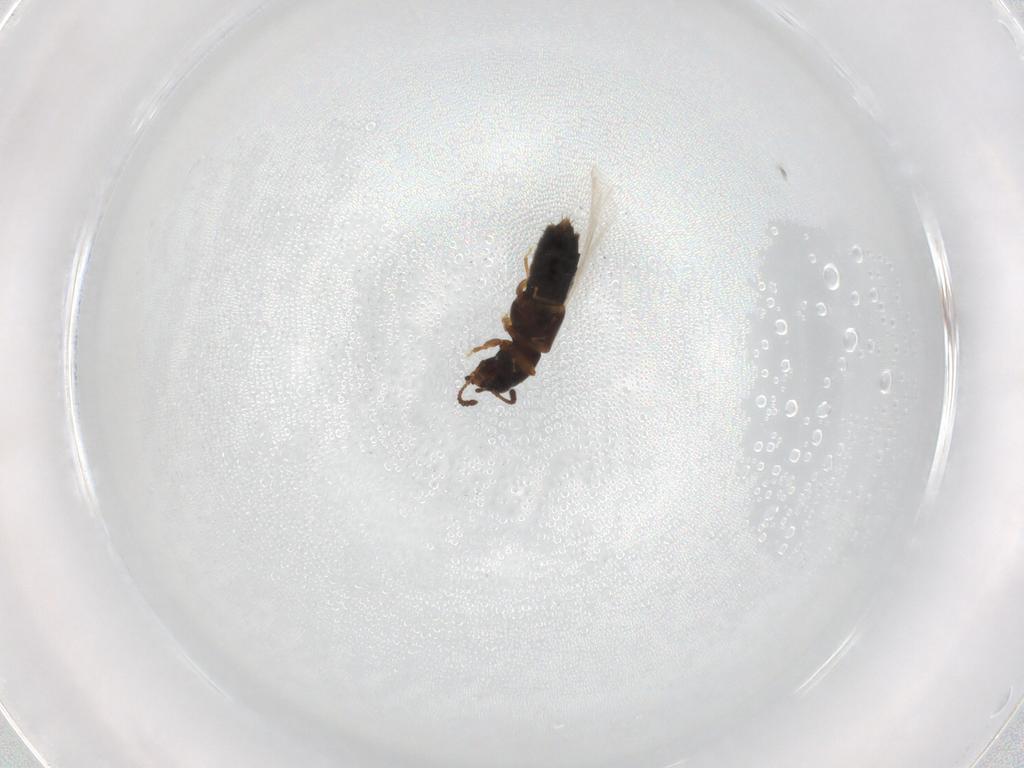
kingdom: Animalia
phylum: Arthropoda
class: Insecta
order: Coleoptera
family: Staphylinidae
